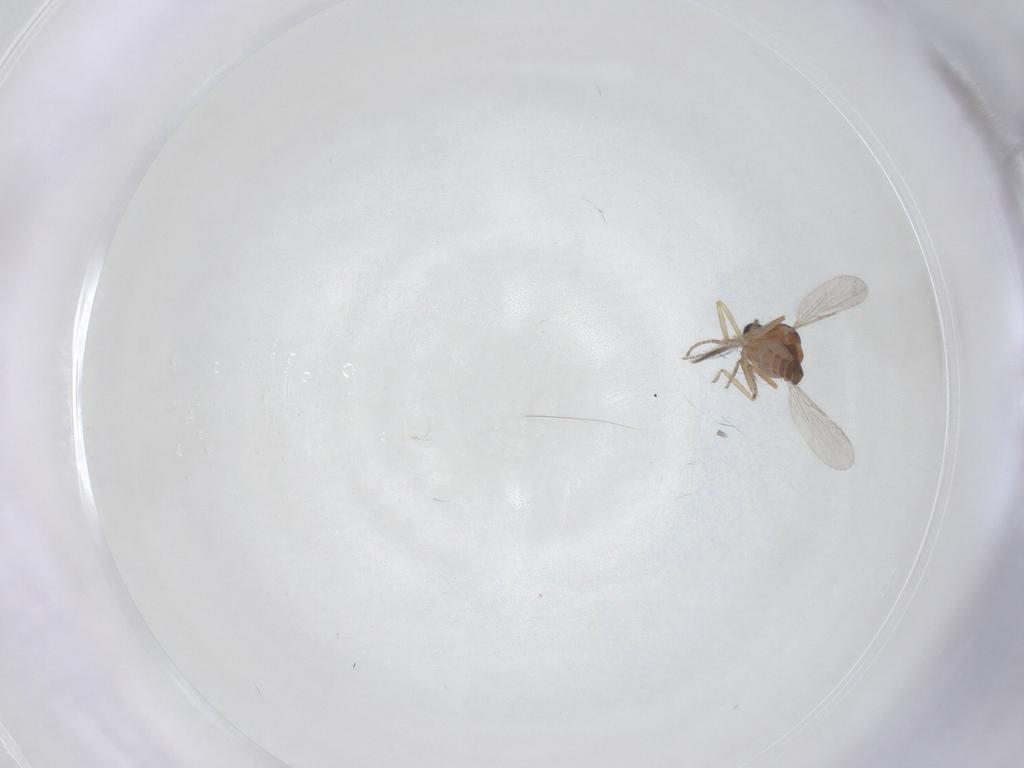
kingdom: Animalia
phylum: Arthropoda
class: Insecta
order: Diptera
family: Ceratopogonidae
